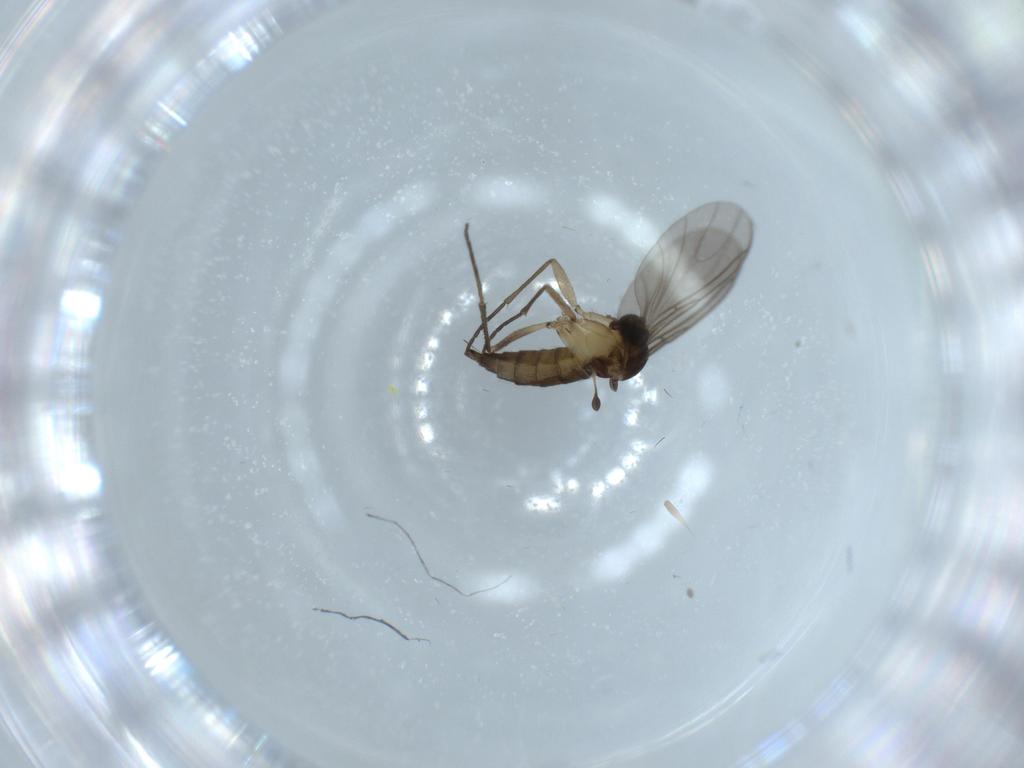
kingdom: Animalia
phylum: Arthropoda
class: Insecta
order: Diptera
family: Sciaridae
